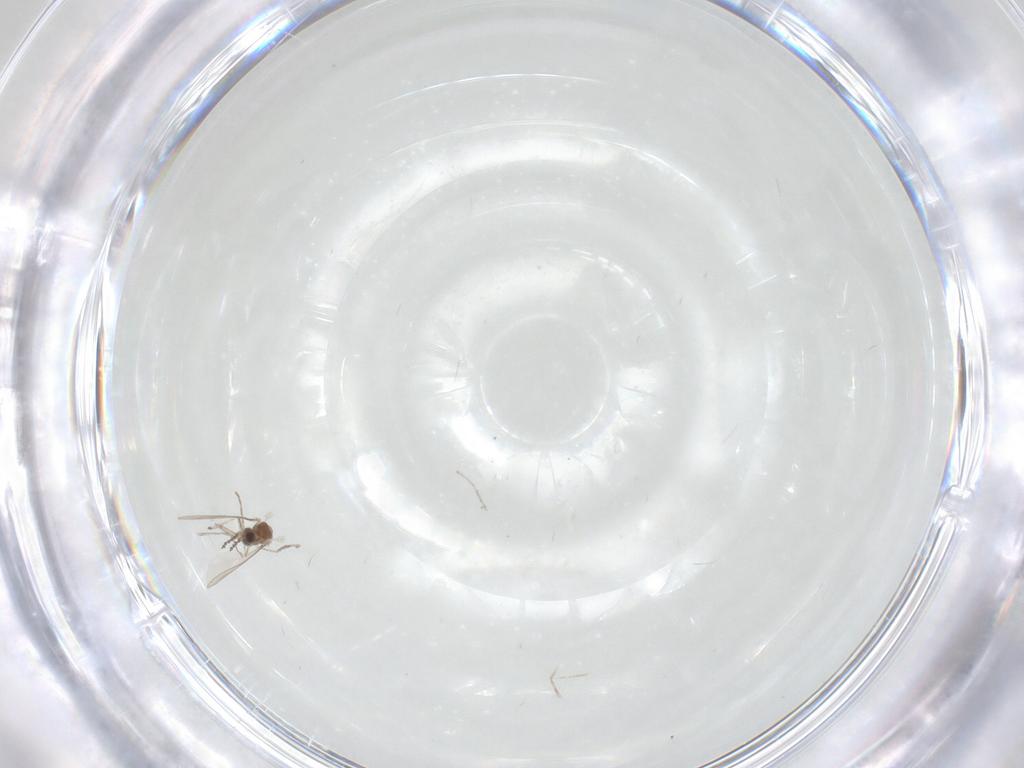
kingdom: Animalia
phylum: Arthropoda
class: Insecta
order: Diptera
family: Cecidomyiidae
